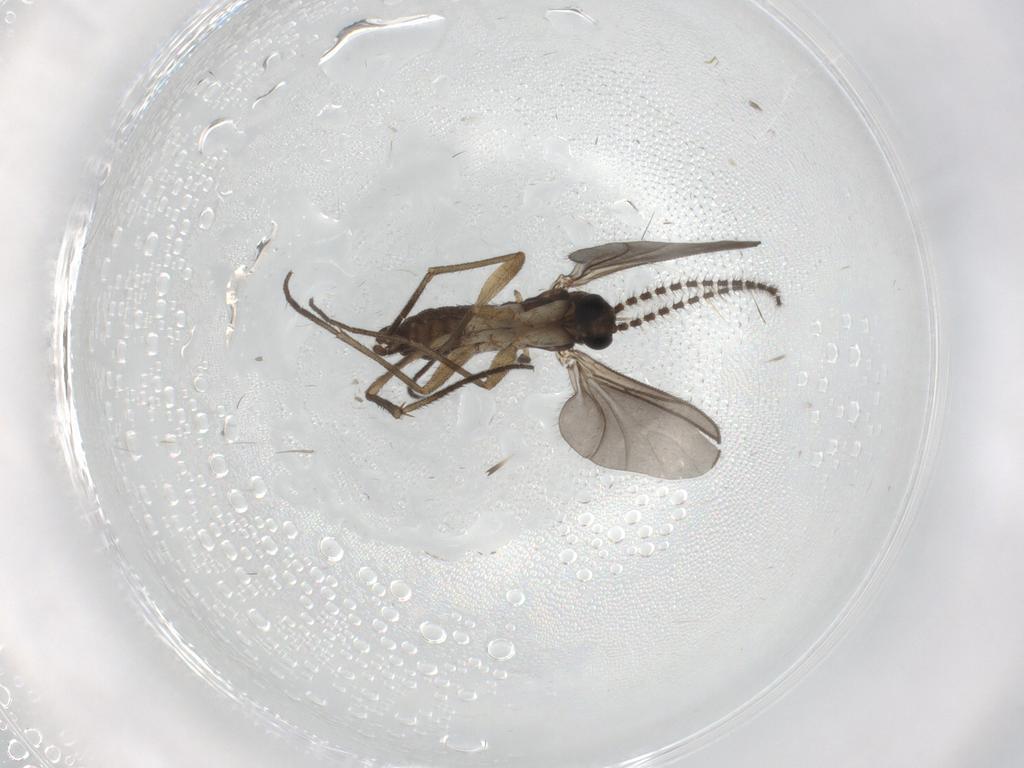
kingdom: Animalia
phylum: Arthropoda
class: Insecta
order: Diptera
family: Sciaridae
